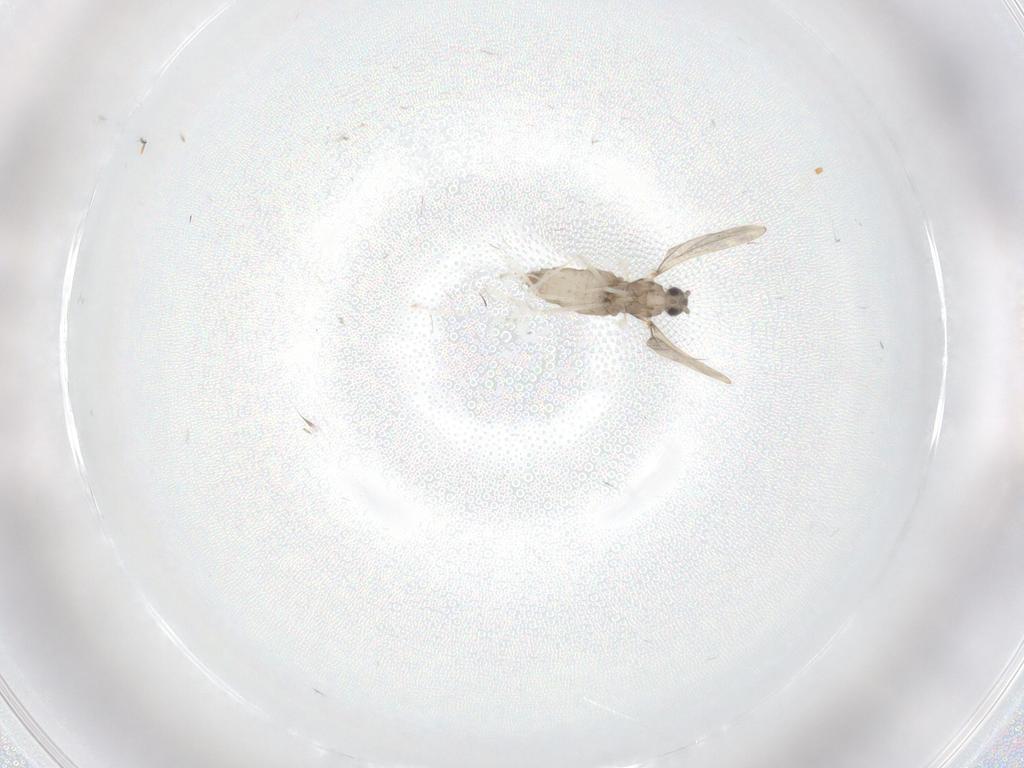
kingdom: Animalia
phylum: Arthropoda
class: Insecta
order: Diptera
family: Cecidomyiidae
